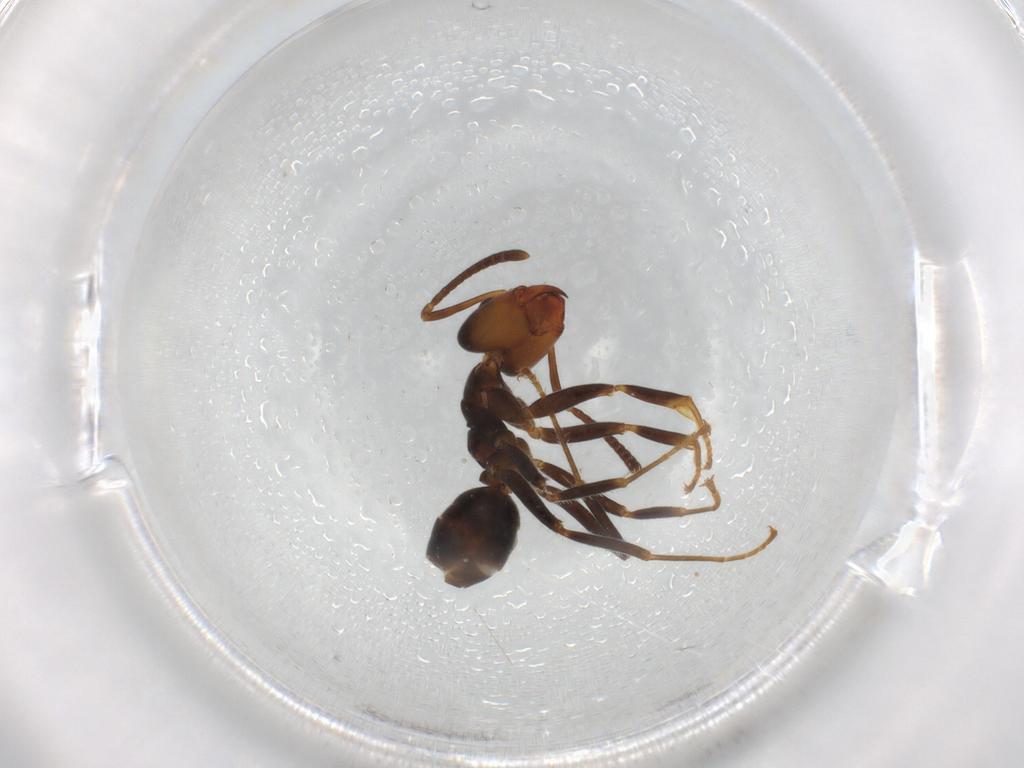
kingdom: Animalia
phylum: Arthropoda
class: Insecta
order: Hymenoptera
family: Formicidae
